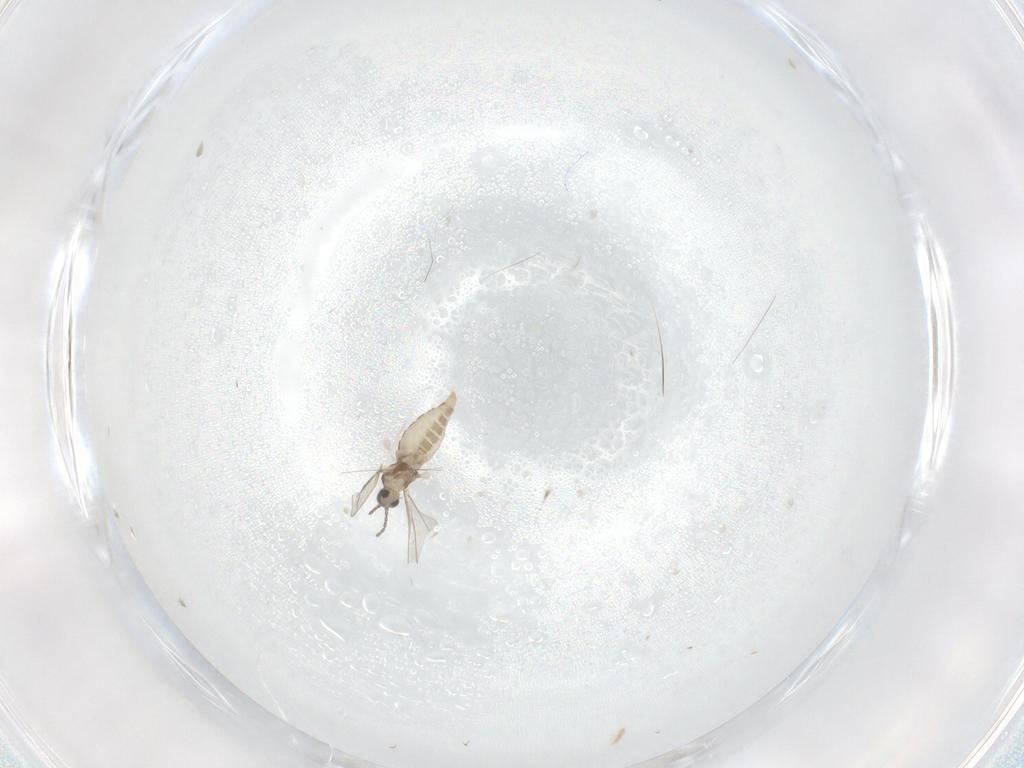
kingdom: Animalia
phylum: Arthropoda
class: Insecta
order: Diptera
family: Cecidomyiidae
